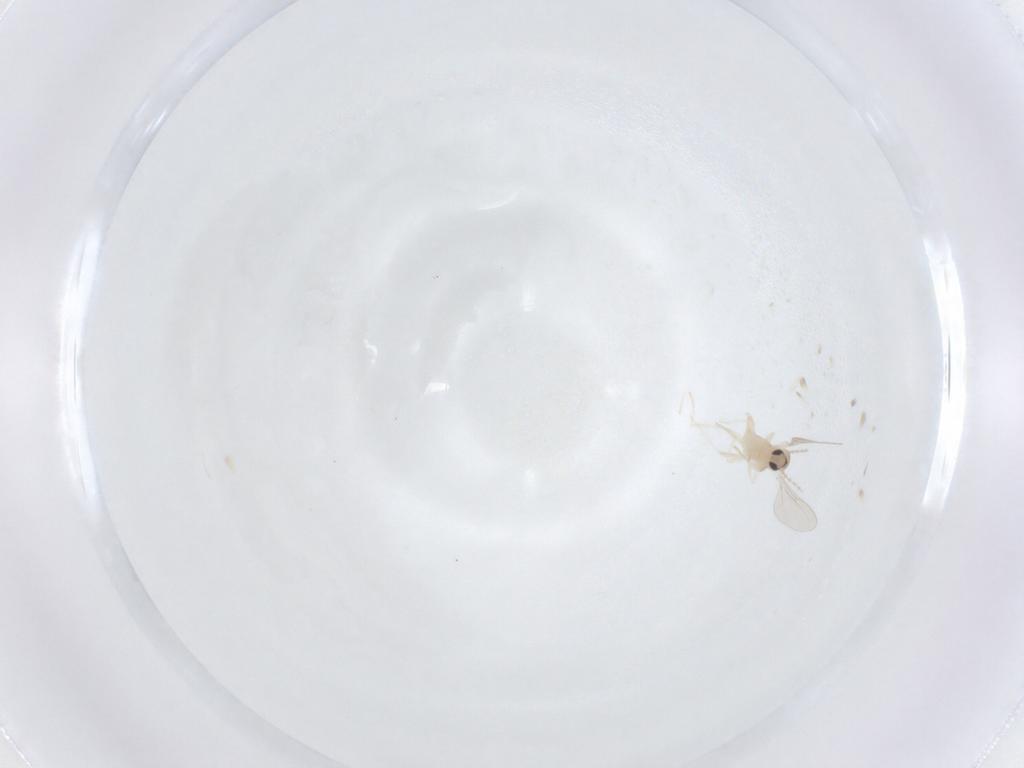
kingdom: Animalia
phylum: Arthropoda
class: Insecta
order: Diptera
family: Cecidomyiidae
